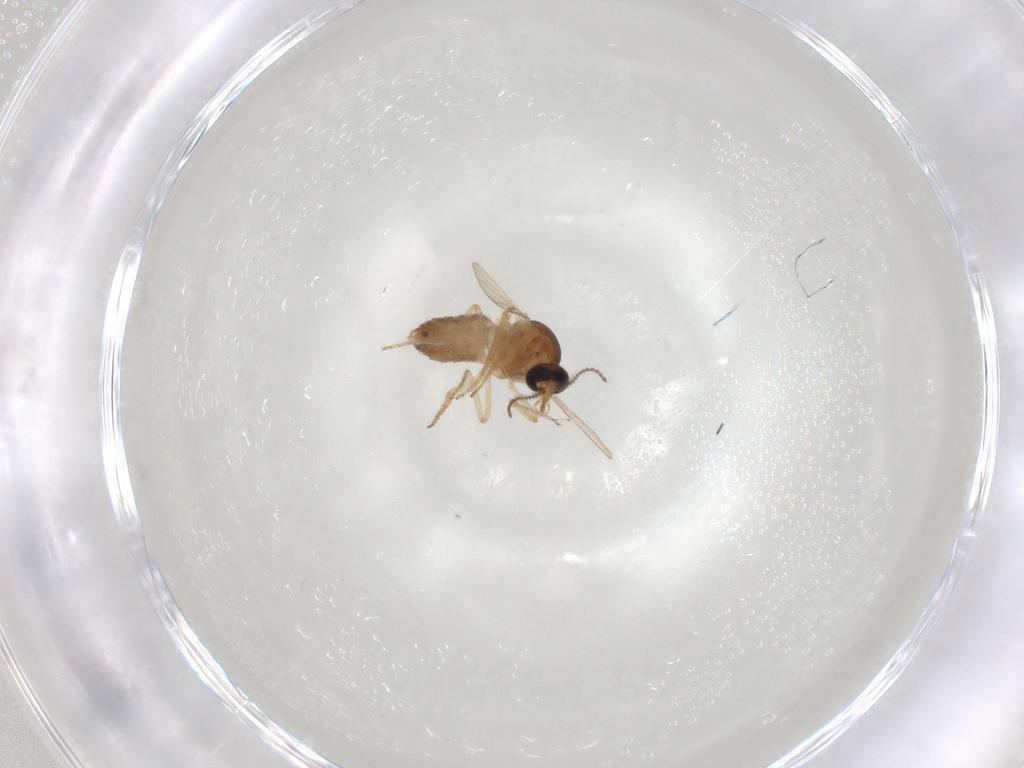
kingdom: Animalia
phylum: Arthropoda
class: Insecta
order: Diptera
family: Ceratopogonidae
